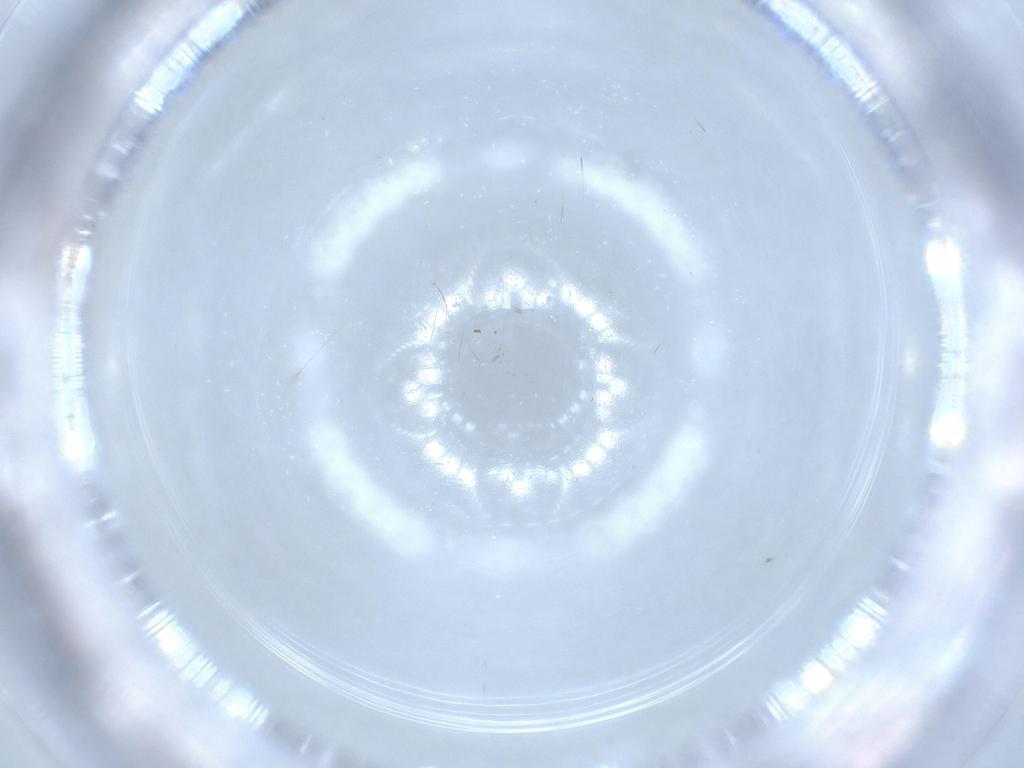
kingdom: Animalia
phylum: Arthropoda
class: Insecta
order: Diptera
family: Cecidomyiidae
